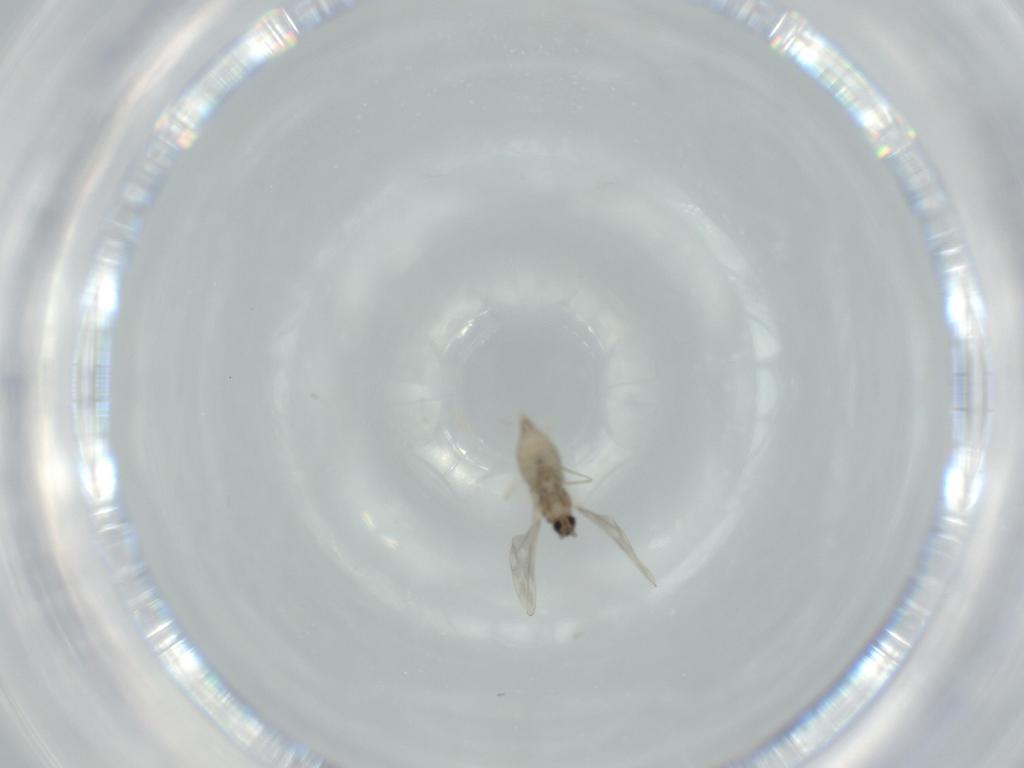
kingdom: Animalia
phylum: Arthropoda
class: Insecta
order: Diptera
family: Cecidomyiidae
